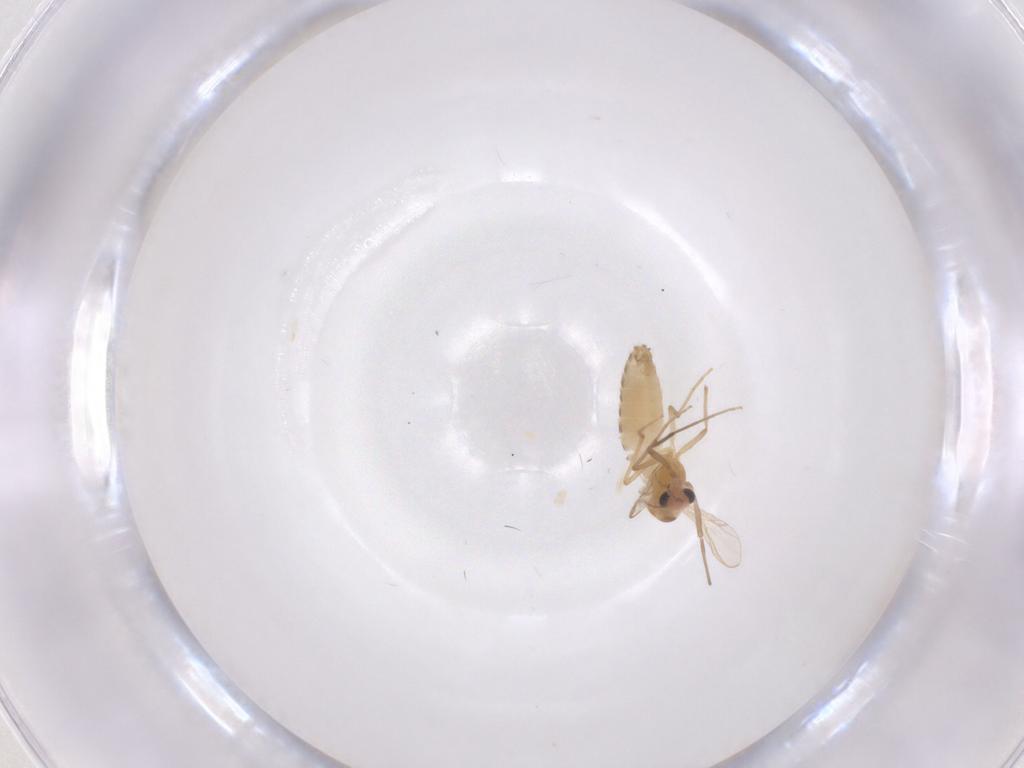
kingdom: Animalia
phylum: Arthropoda
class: Insecta
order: Diptera
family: Chironomidae
